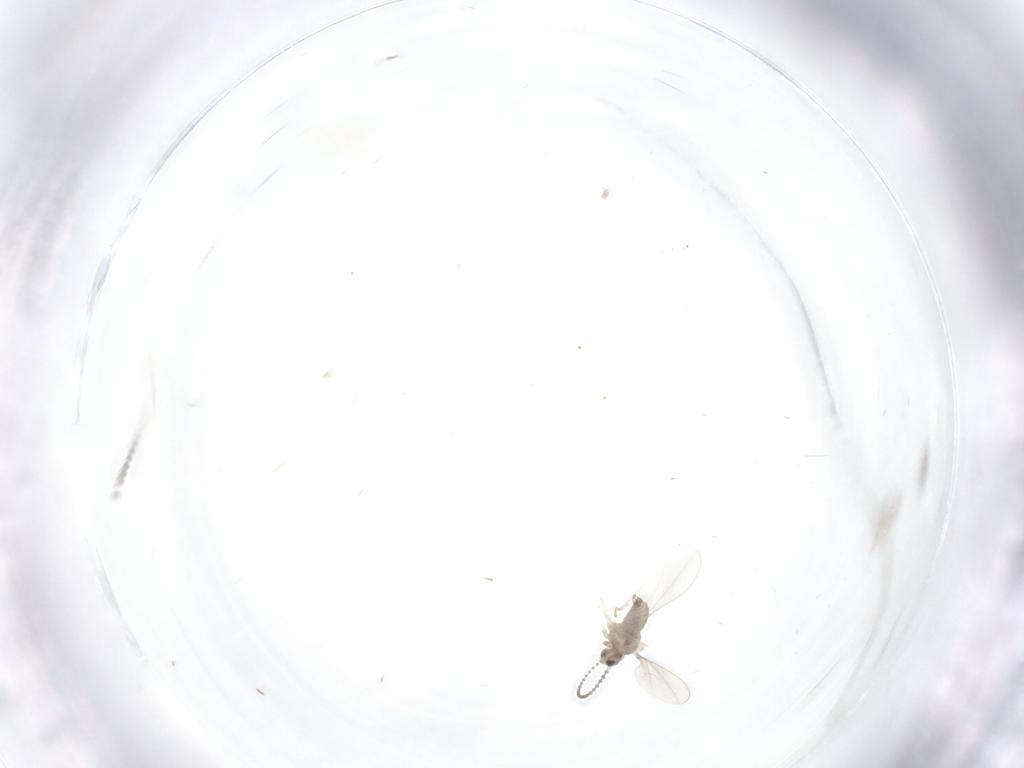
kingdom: Animalia
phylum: Arthropoda
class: Insecta
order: Diptera
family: Cecidomyiidae
